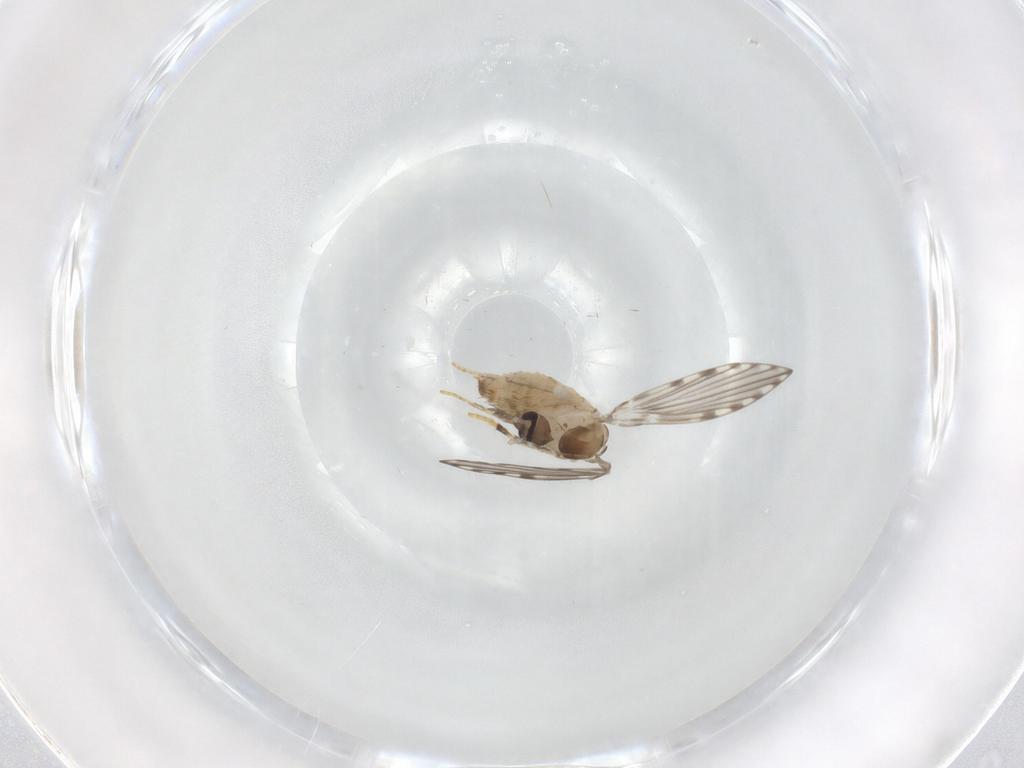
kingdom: Animalia
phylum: Arthropoda
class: Insecta
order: Diptera
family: Psychodidae
